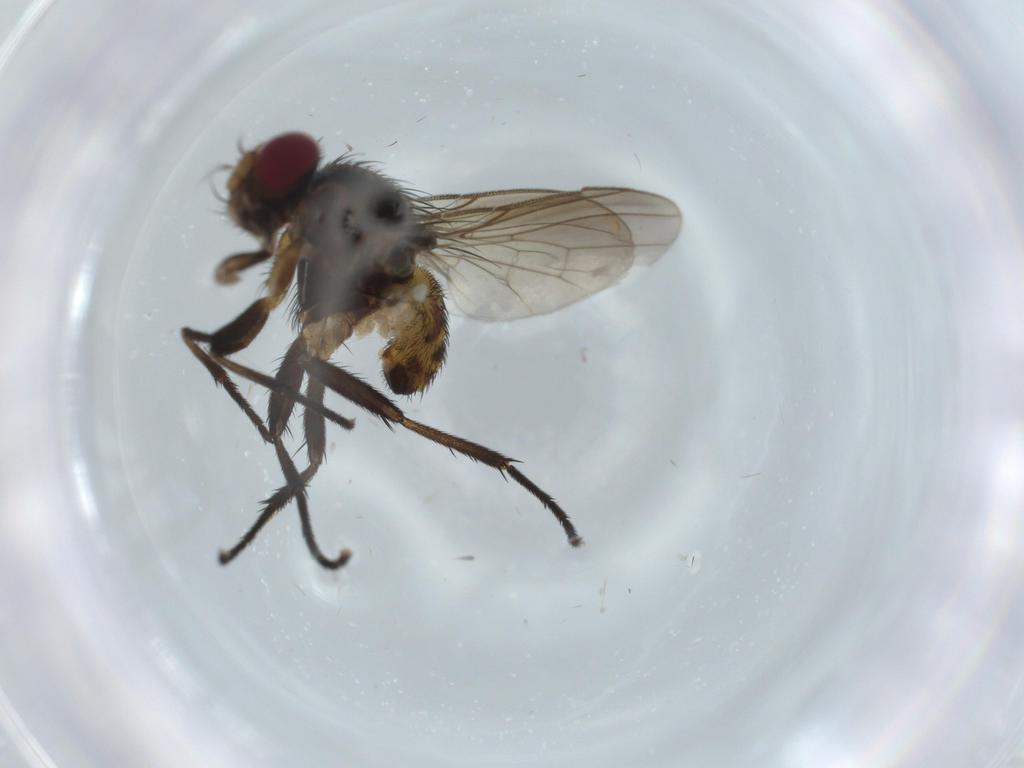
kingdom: Animalia
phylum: Arthropoda
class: Insecta
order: Diptera
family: Anthomyiidae
